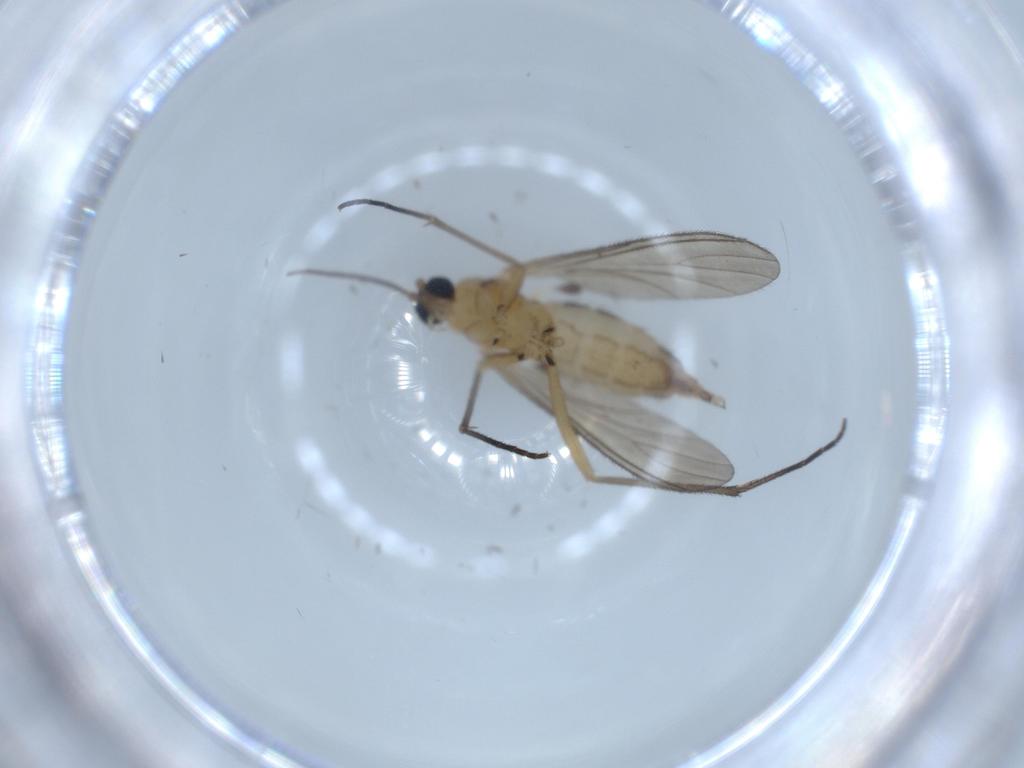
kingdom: Animalia
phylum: Arthropoda
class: Insecta
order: Diptera
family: Sciaridae
